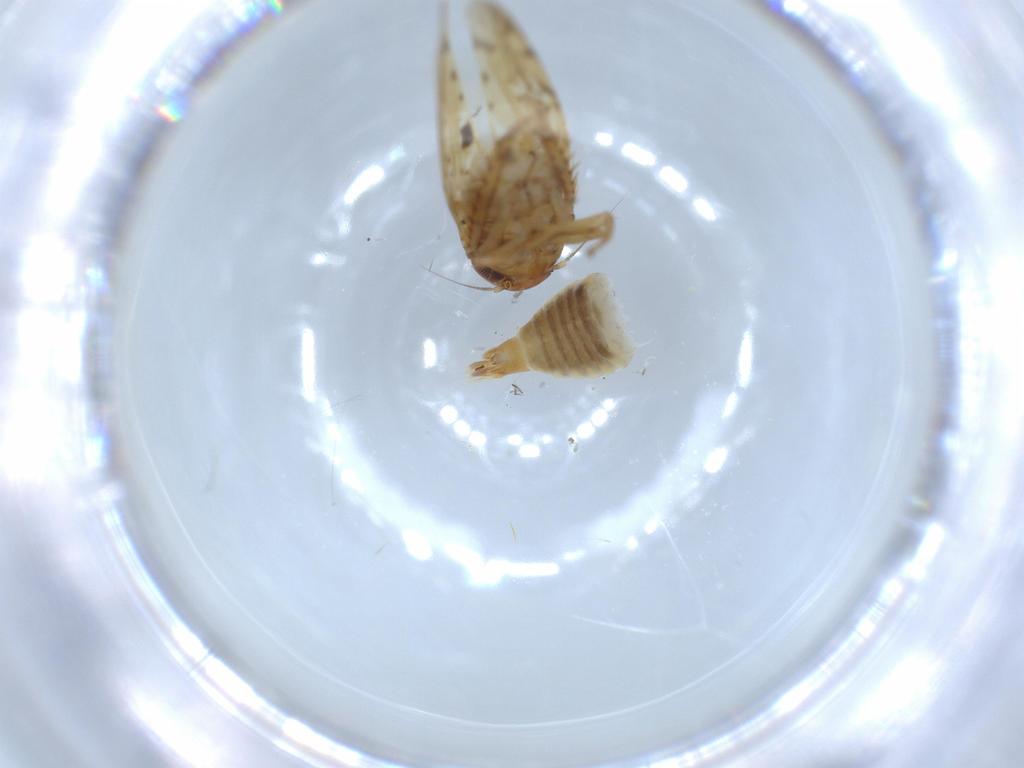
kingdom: Animalia
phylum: Arthropoda
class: Insecta
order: Hemiptera
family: Cicadellidae
